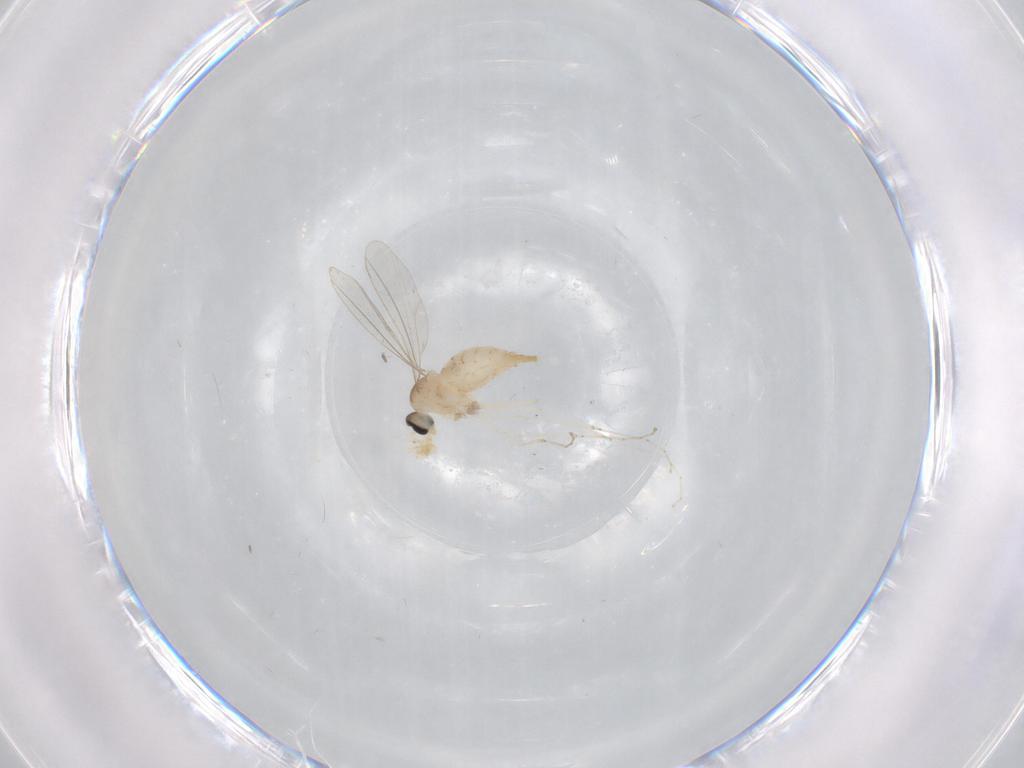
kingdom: Animalia
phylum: Arthropoda
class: Insecta
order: Diptera
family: Cecidomyiidae
